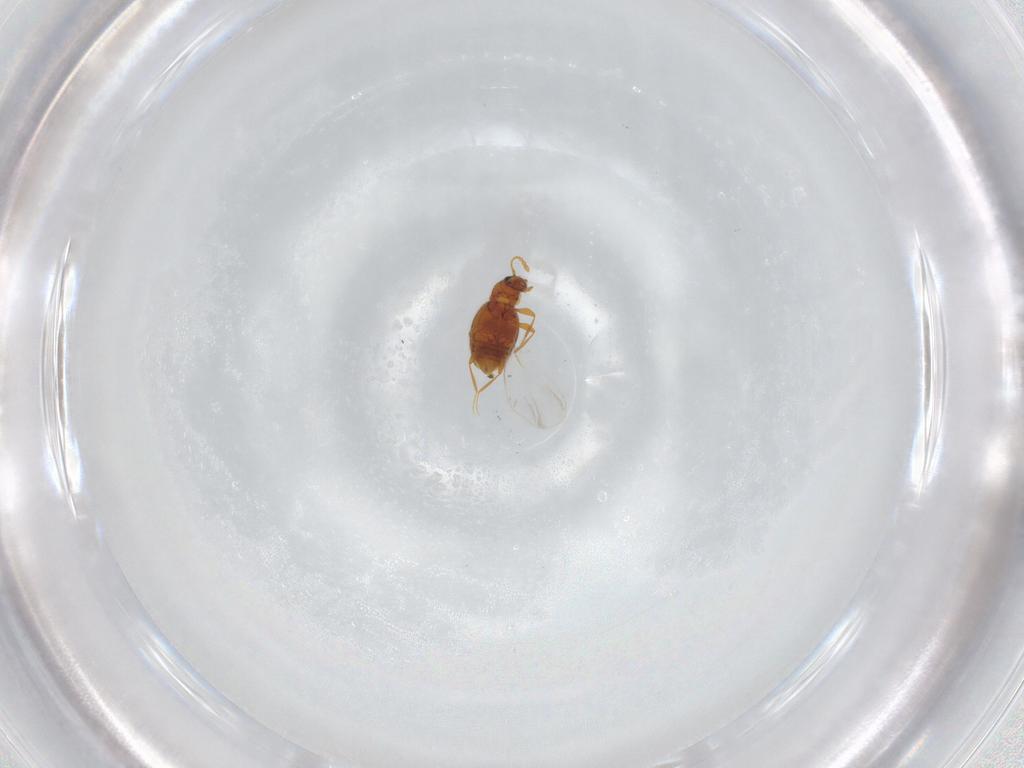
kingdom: Animalia
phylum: Arthropoda
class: Insecta
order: Coleoptera
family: Staphylinidae
